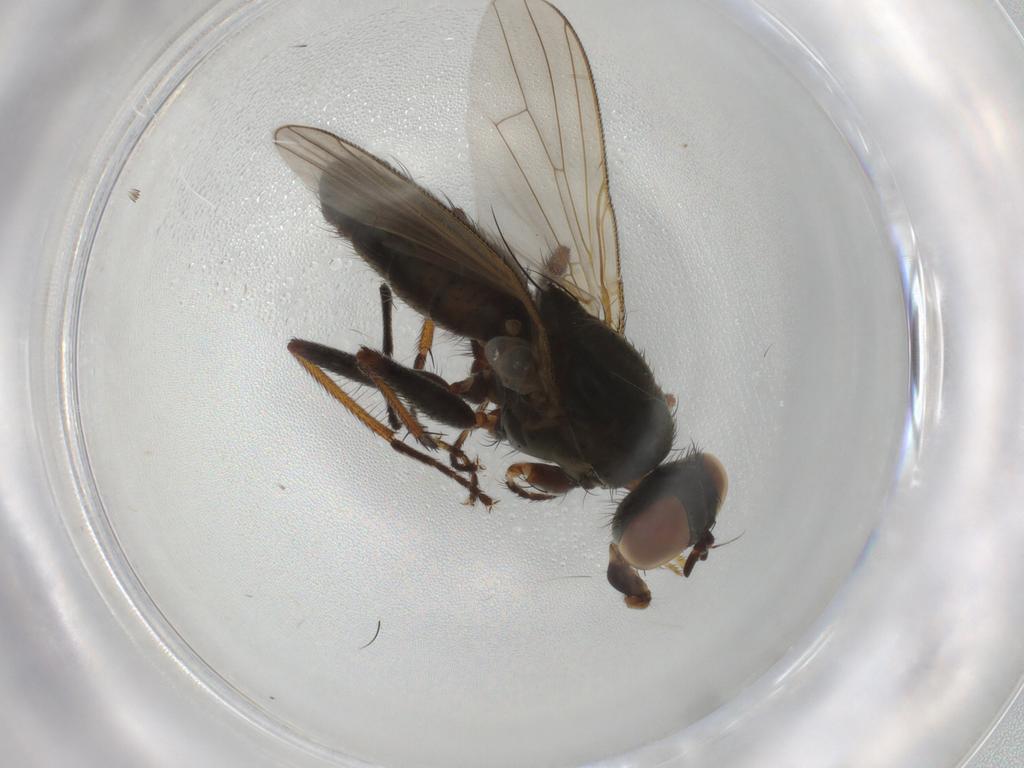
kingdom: Animalia
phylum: Arthropoda
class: Insecta
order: Diptera
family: Muscidae
